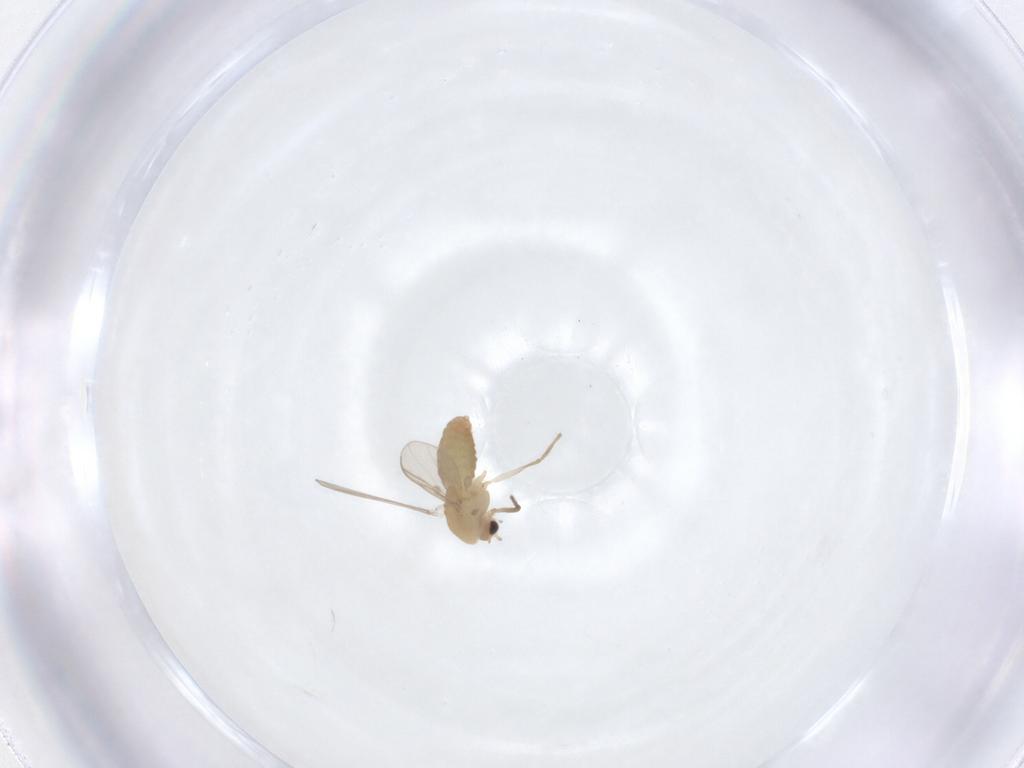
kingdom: Animalia
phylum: Arthropoda
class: Insecta
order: Diptera
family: Chironomidae
